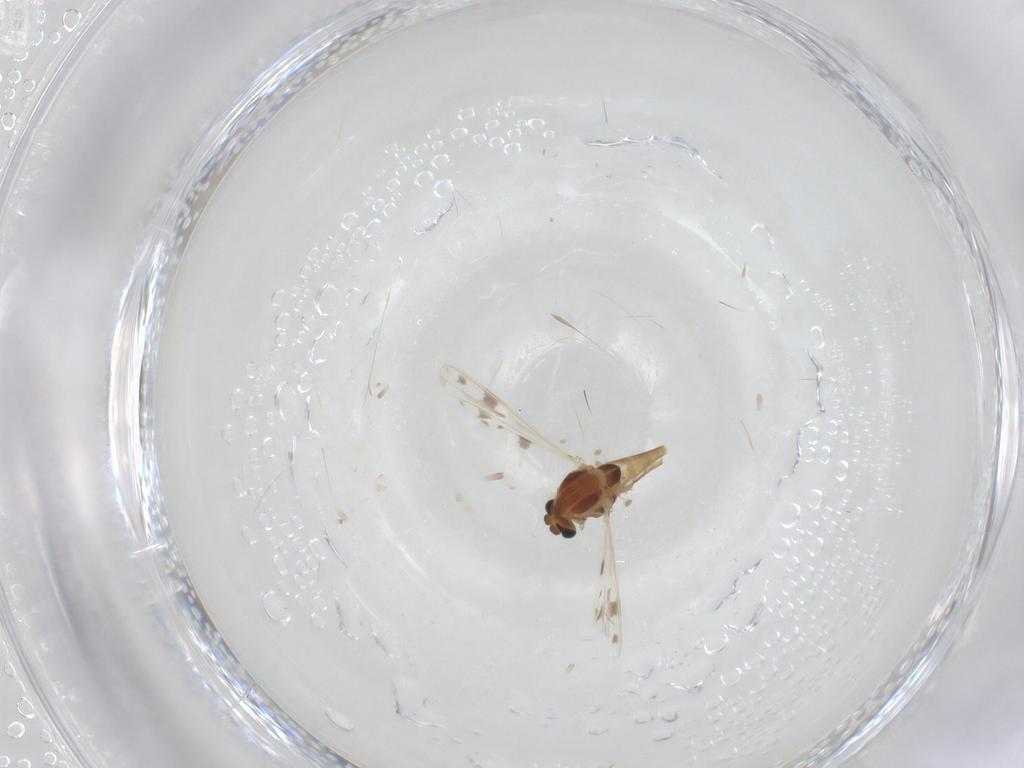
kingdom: Animalia
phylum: Arthropoda
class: Insecta
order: Diptera
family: Chironomidae
